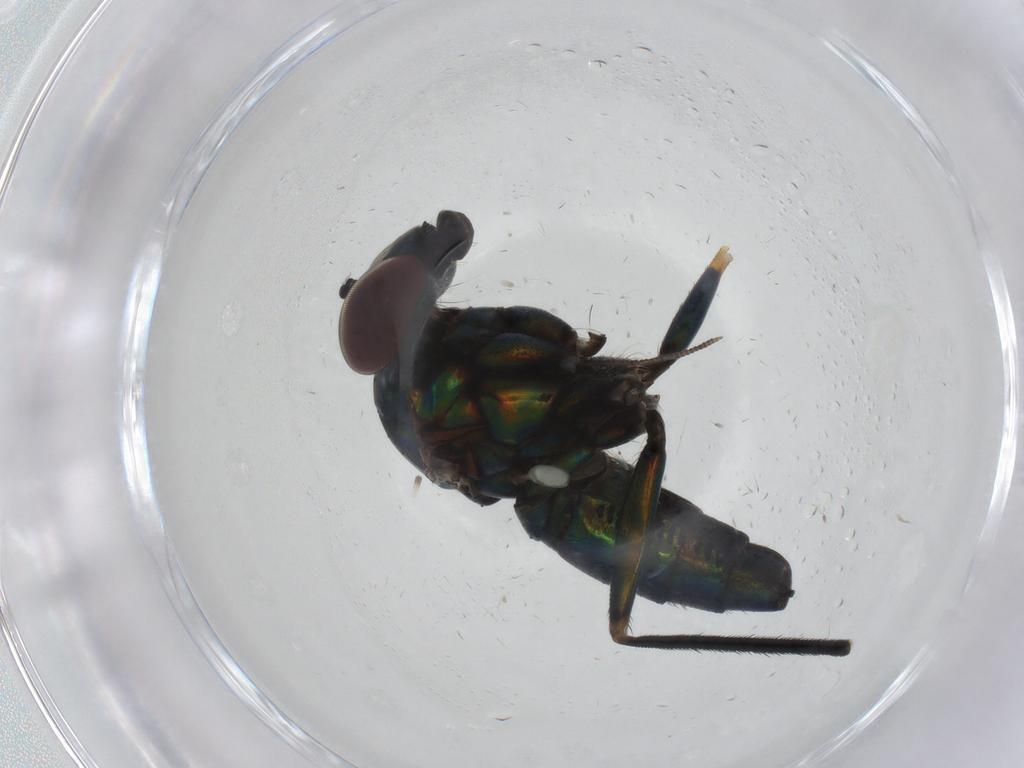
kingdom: Animalia
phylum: Arthropoda
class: Insecta
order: Diptera
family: Dolichopodidae
